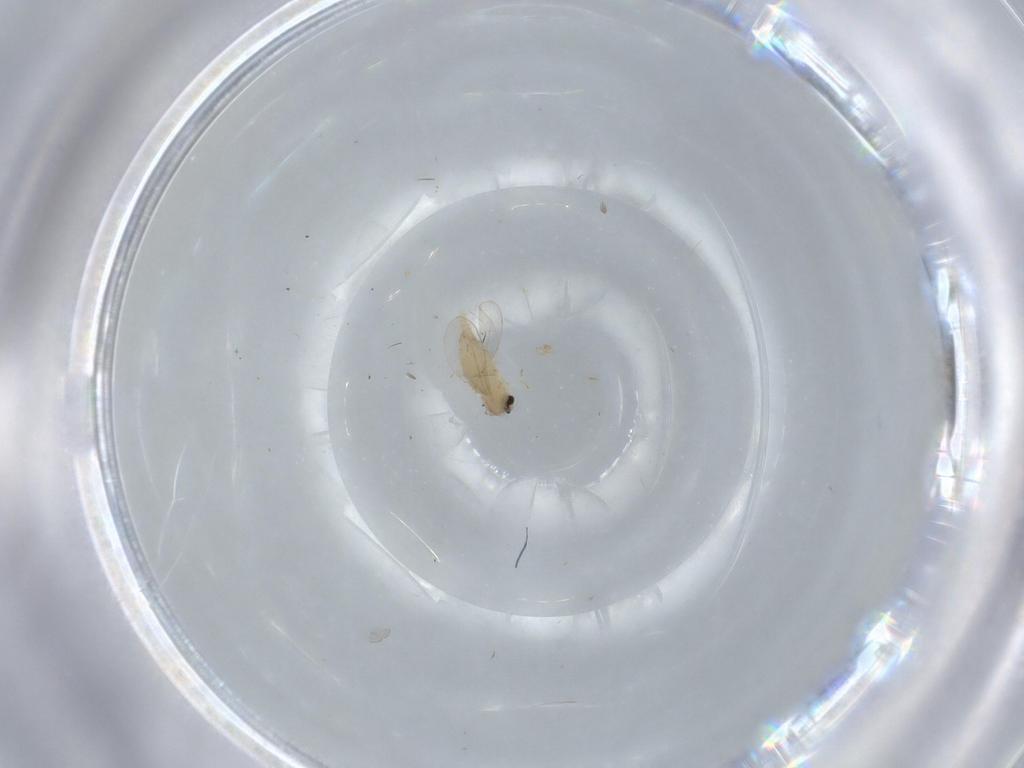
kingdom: Animalia
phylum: Arthropoda
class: Insecta
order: Diptera
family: Cecidomyiidae
